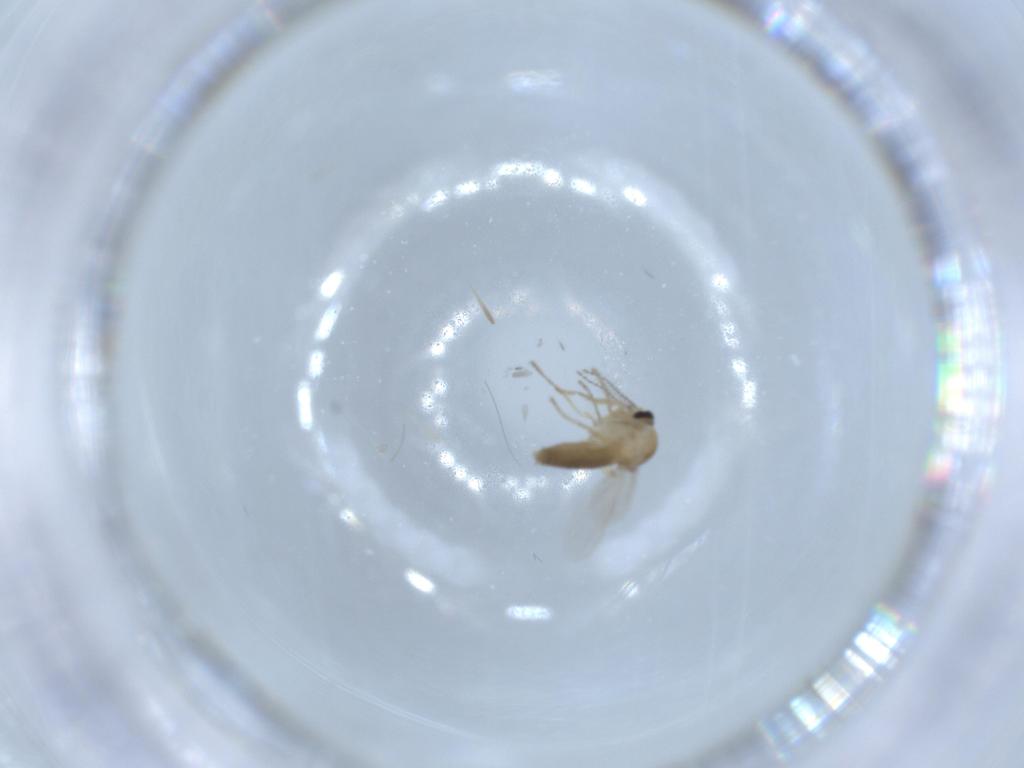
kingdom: Animalia
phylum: Arthropoda
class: Insecta
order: Diptera
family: Ceratopogonidae
